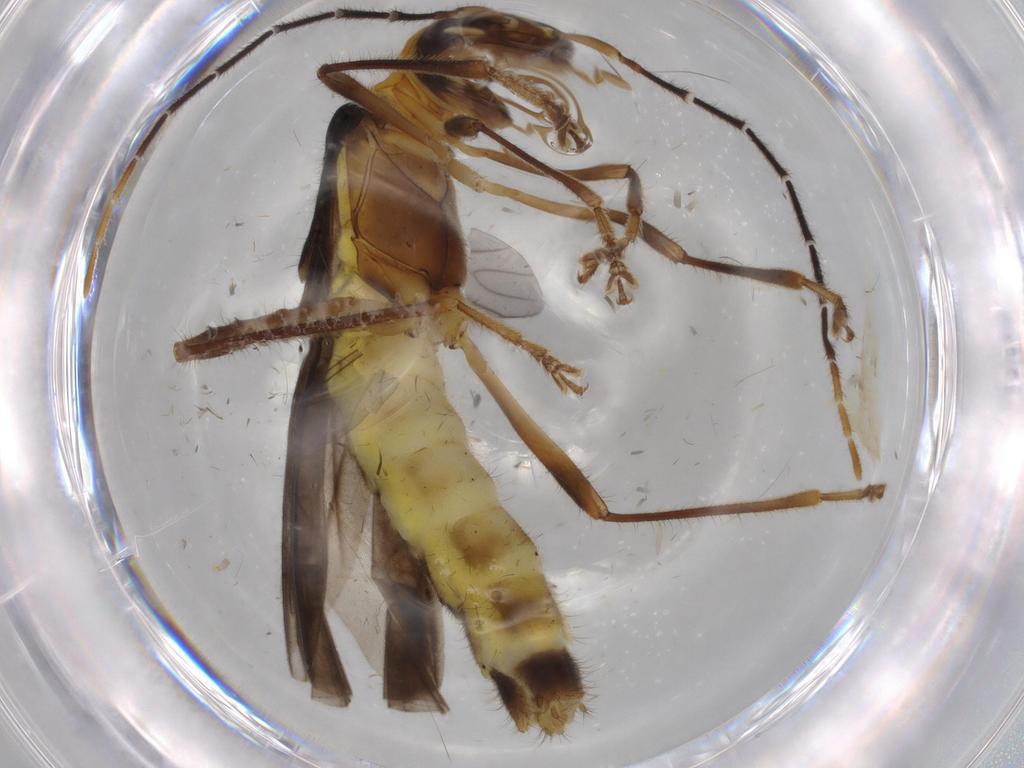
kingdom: Animalia
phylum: Arthropoda
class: Insecta
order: Coleoptera
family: Cantharidae
